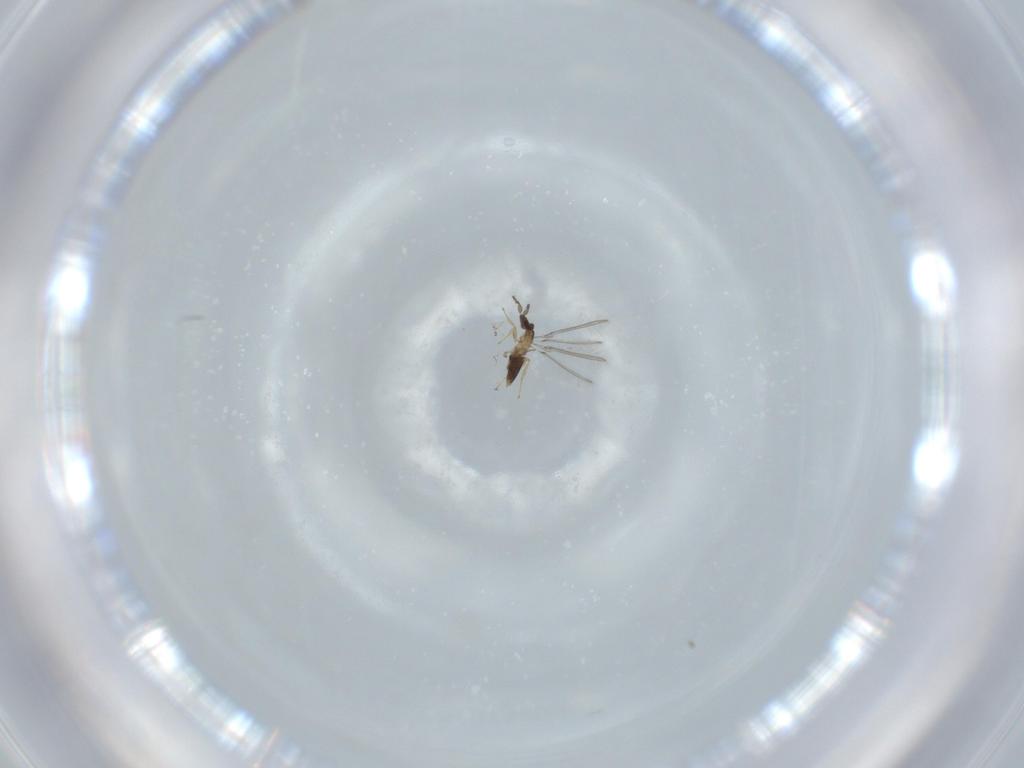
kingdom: Animalia
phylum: Arthropoda
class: Insecta
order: Hymenoptera
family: Mymaridae
